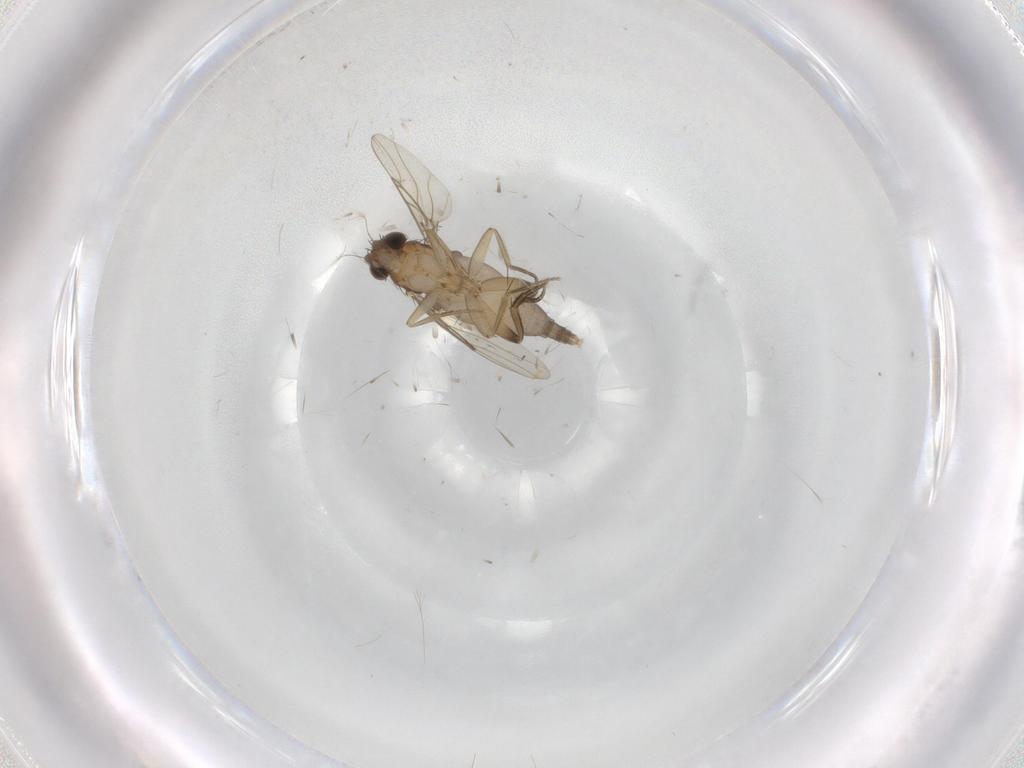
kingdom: Animalia
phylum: Arthropoda
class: Insecta
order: Diptera
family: Phoridae
